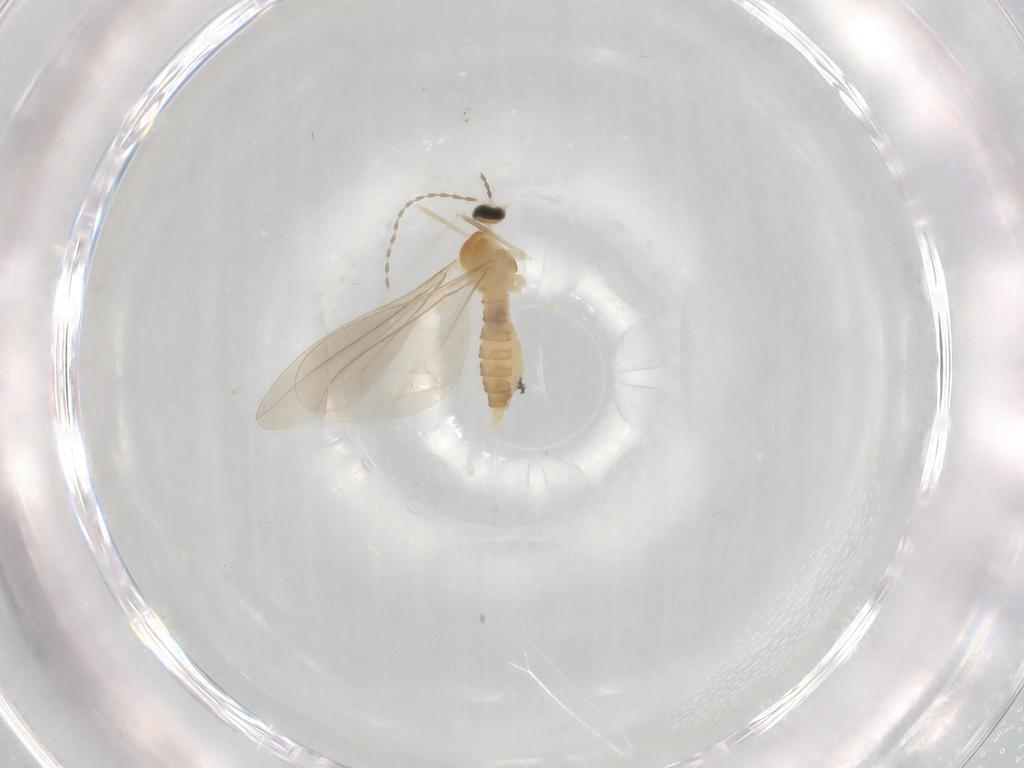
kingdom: Animalia
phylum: Arthropoda
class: Insecta
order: Diptera
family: Cecidomyiidae
